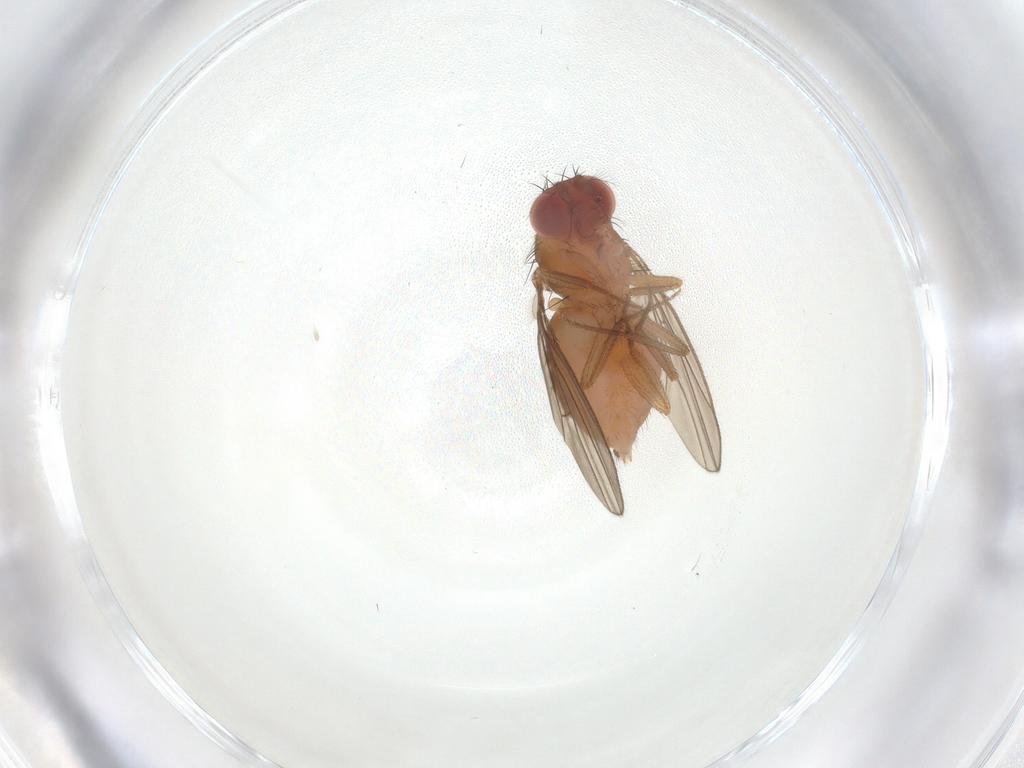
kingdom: Animalia
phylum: Arthropoda
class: Insecta
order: Diptera
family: Drosophilidae
